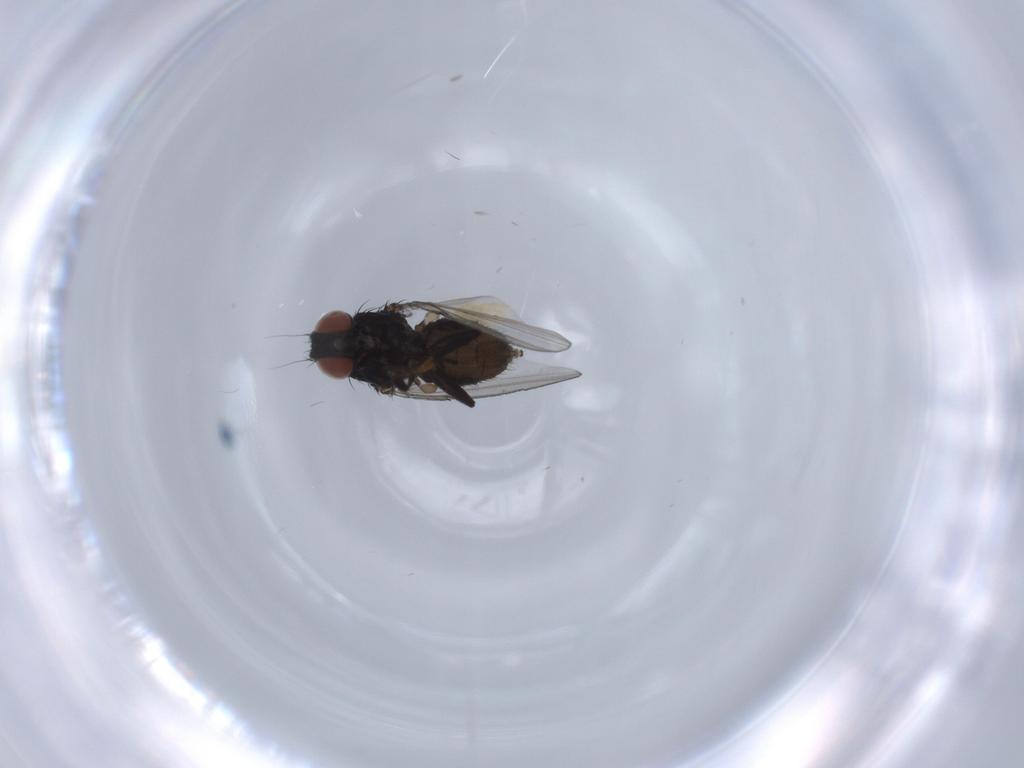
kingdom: Animalia
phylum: Arthropoda
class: Insecta
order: Diptera
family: Milichiidae
